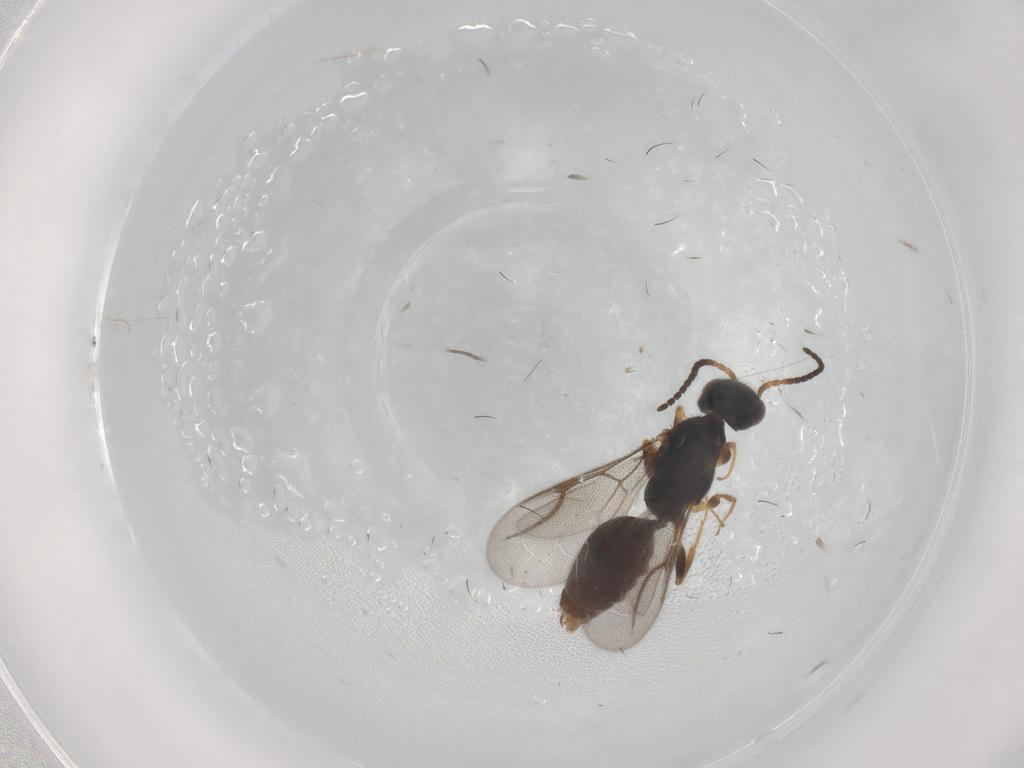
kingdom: Animalia
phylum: Arthropoda
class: Insecta
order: Hymenoptera
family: Bethylidae
